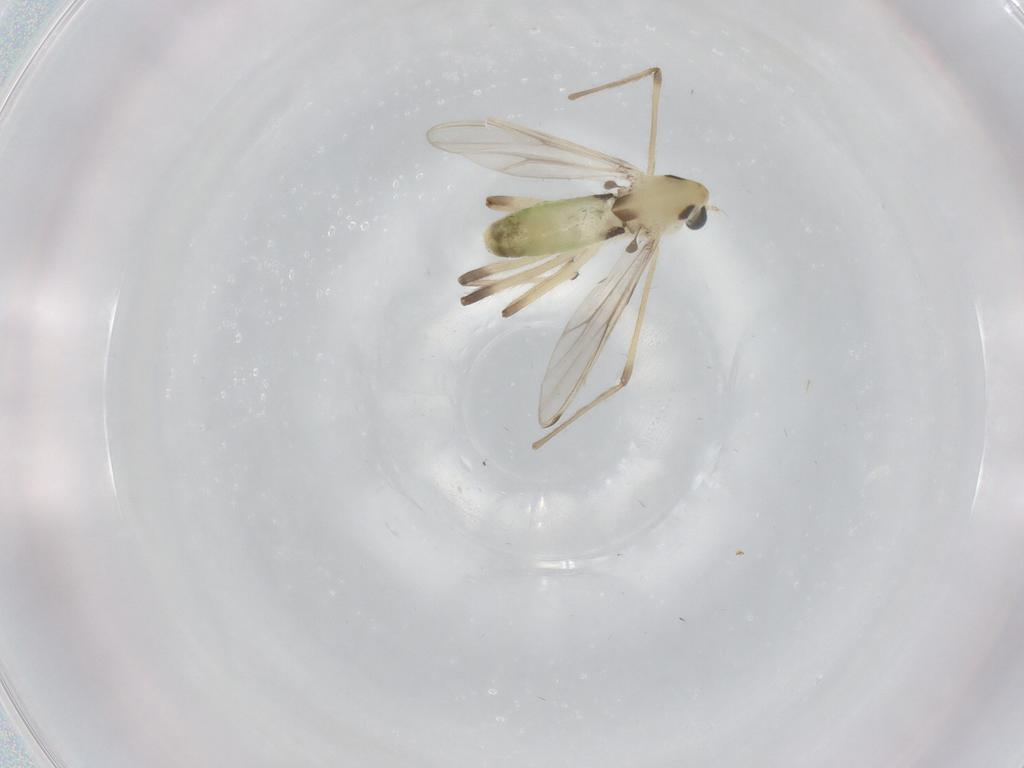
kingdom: Animalia
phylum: Arthropoda
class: Insecta
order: Diptera
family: Chironomidae
